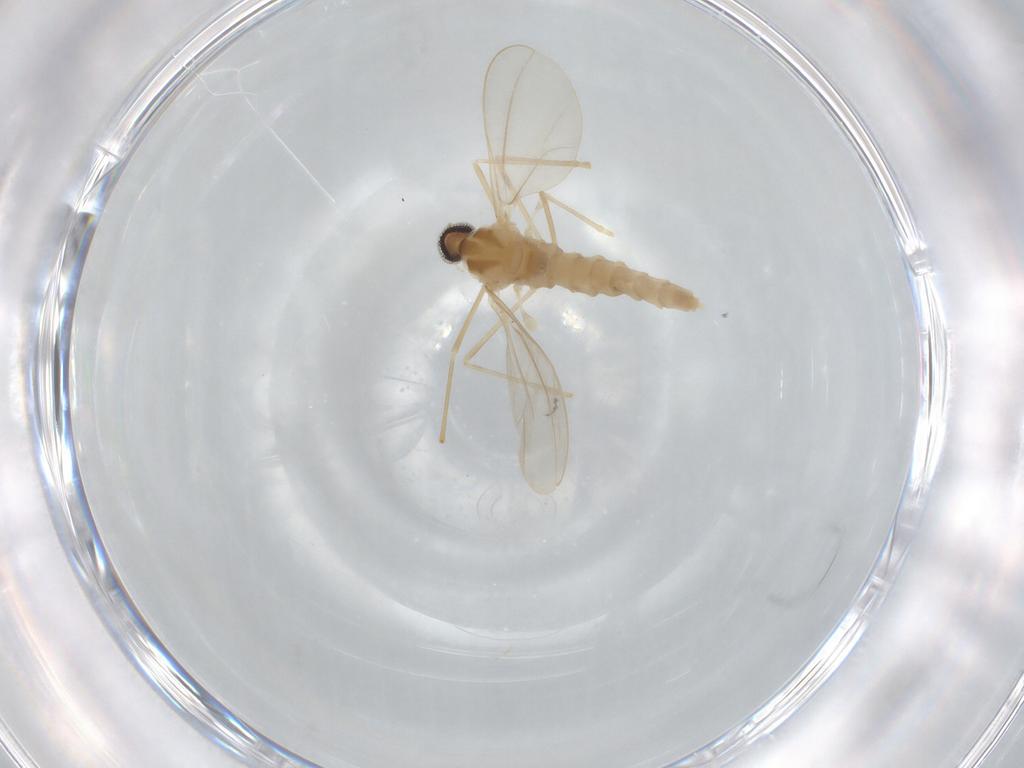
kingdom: Animalia
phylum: Arthropoda
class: Insecta
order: Diptera
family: Cecidomyiidae
